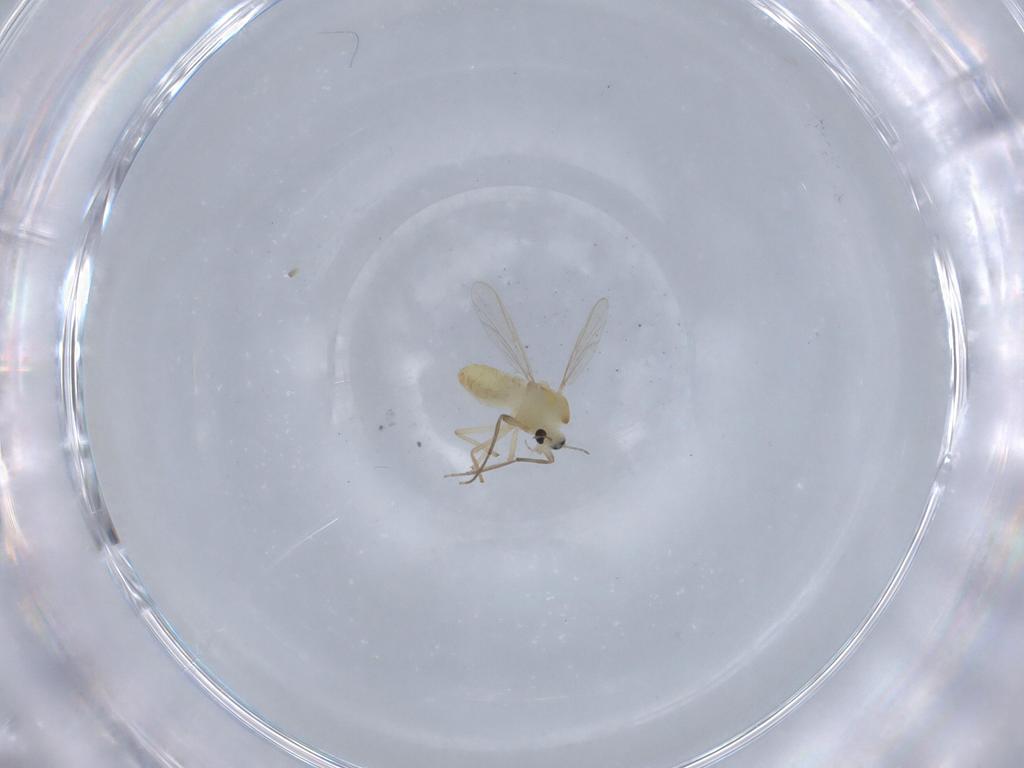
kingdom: Animalia
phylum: Arthropoda
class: Insecta
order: Diptera
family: Chironomidae
